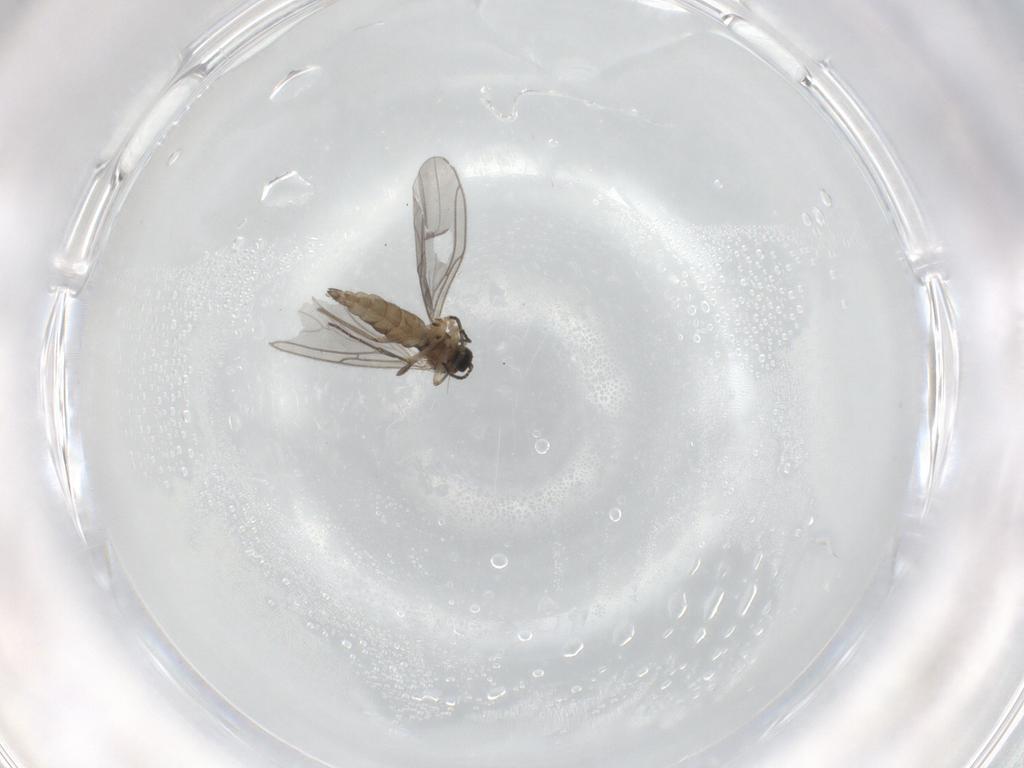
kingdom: Animalia
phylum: Arthropoda
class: Insecta
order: Diptera
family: Sciaridae
